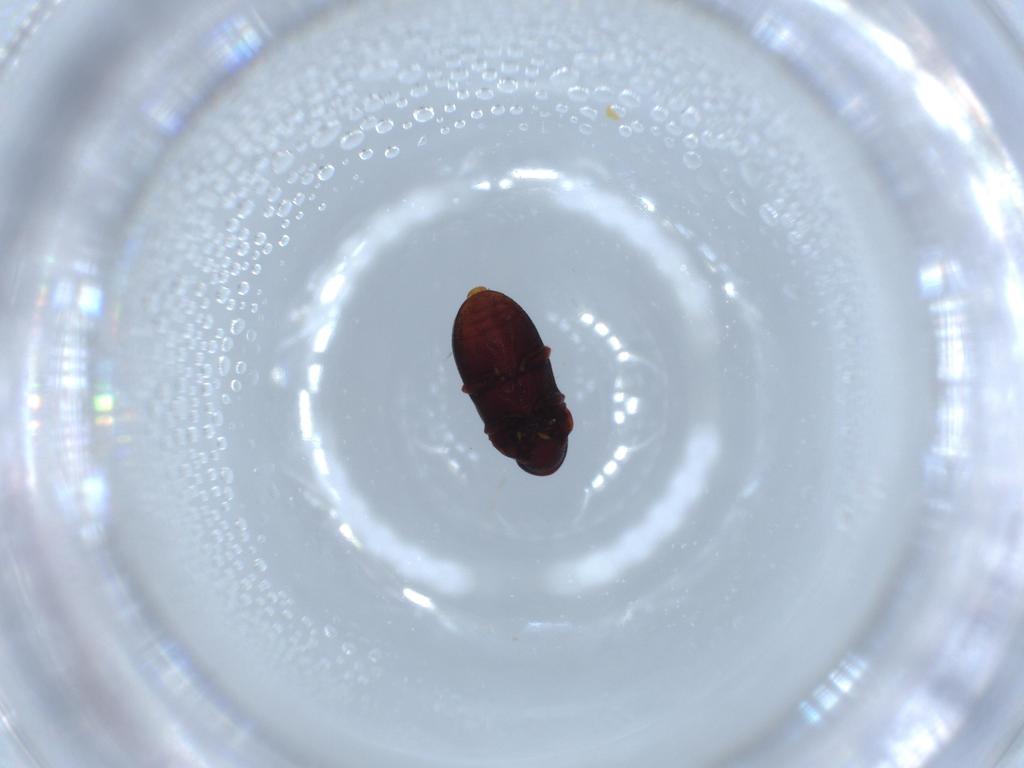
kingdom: Animalia
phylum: Arthropoda
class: Insecta
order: Coleoptera
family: Ptinidae
